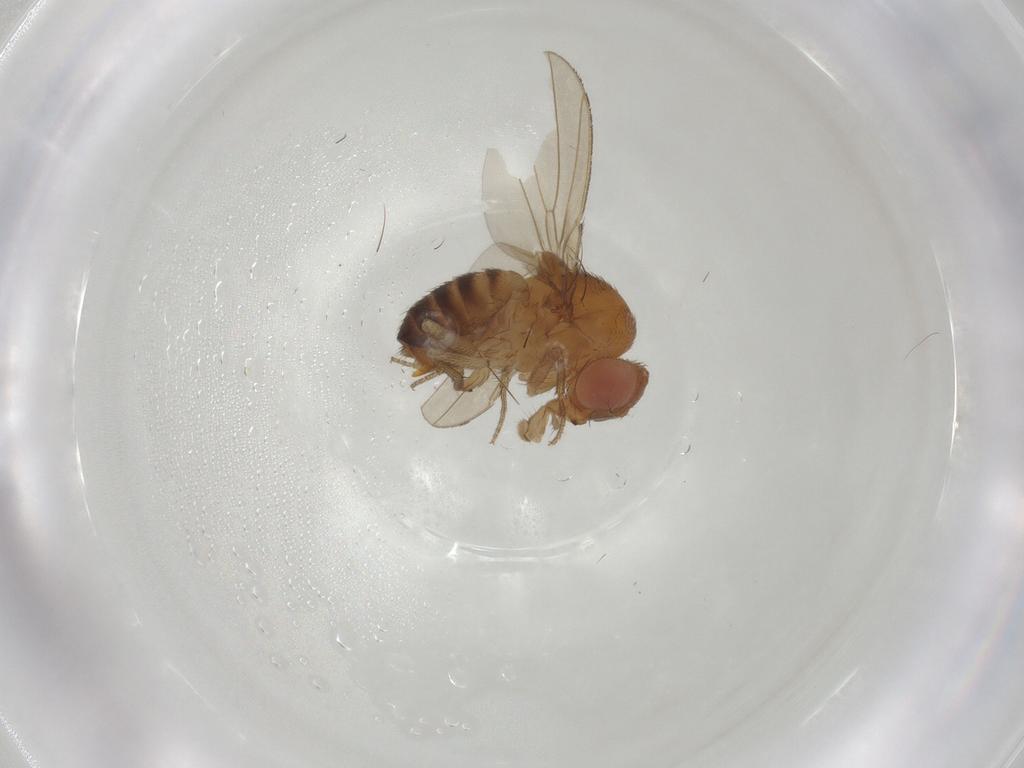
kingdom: Animalia
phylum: Arthropoda
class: Insecta
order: Diptera
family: Drosophilidae
